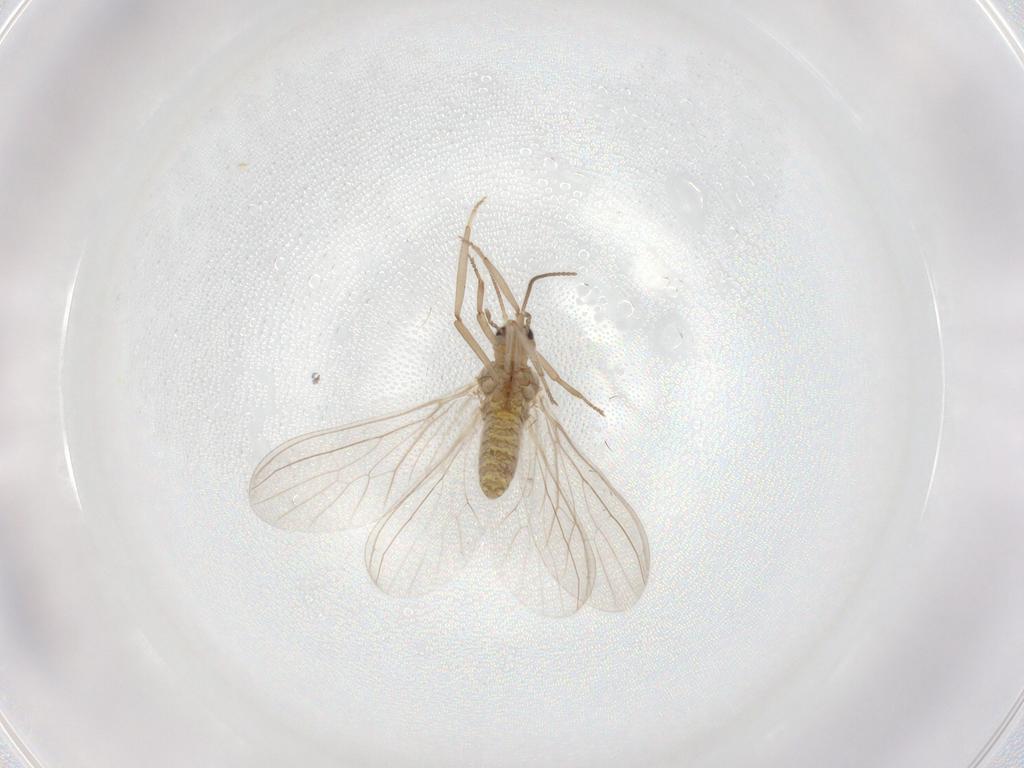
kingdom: Animalia
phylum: Arthropoda
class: Insecta
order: Neuroptera
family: Coniopterygidae
